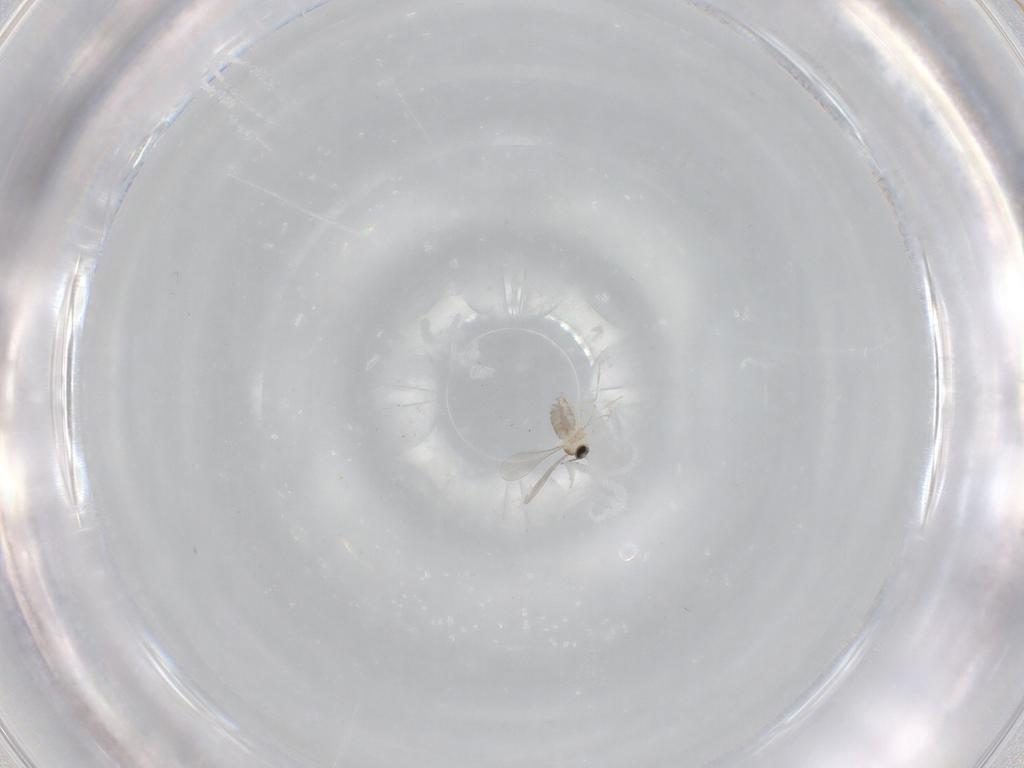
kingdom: Animalia
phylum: Arthropoda
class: Insecta
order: Diptera
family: Cecidomyiidae
